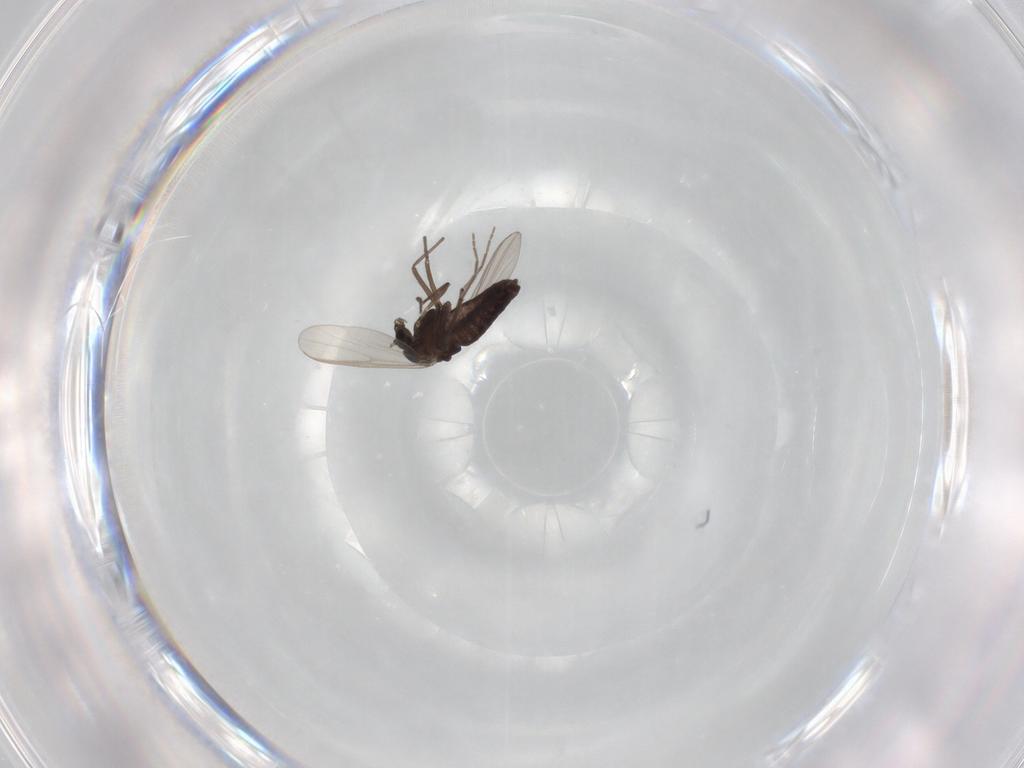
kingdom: Animalia
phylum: Arthropoda
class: Insecta
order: Diptera
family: Chironomidae
